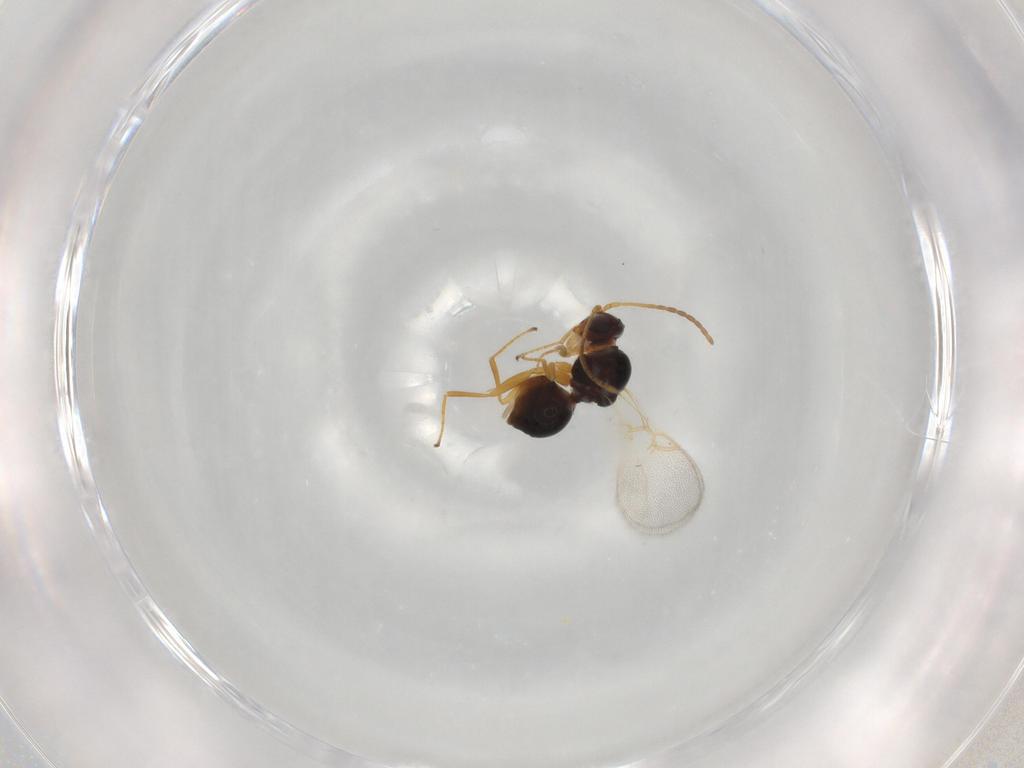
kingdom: Animalia
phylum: Arthropoda
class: Insecta
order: Hymenoptera
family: Figitidae
